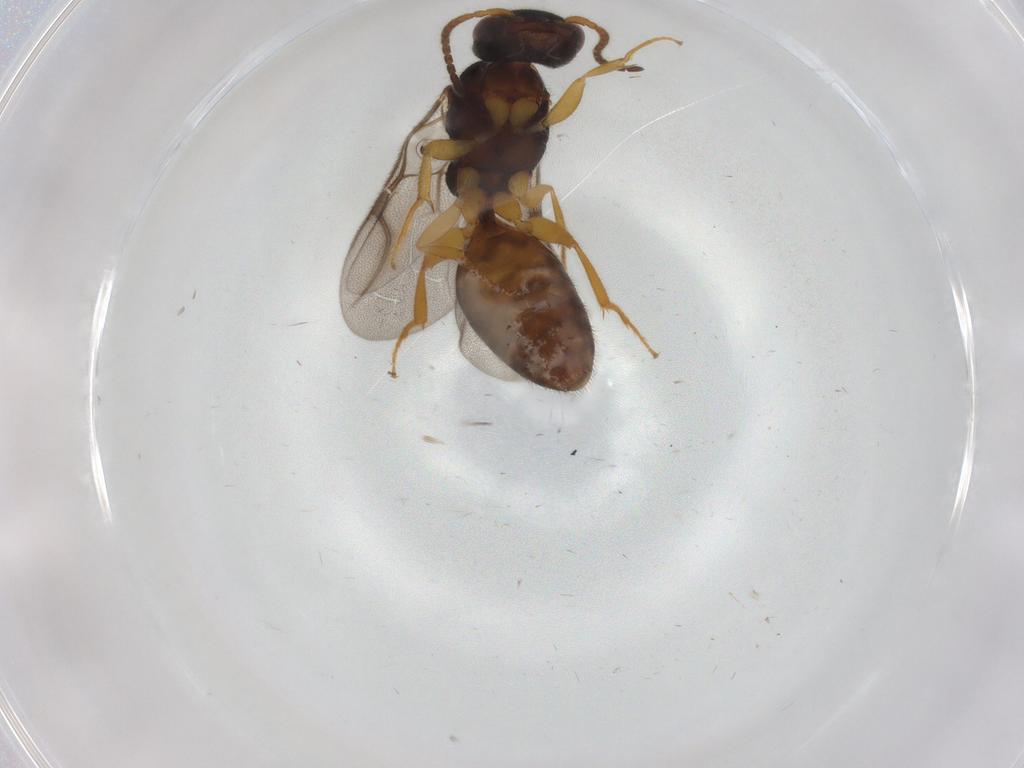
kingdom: Animalia
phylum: Arthropoda
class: Insecta
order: Hymenoptera
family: Bethylidae
